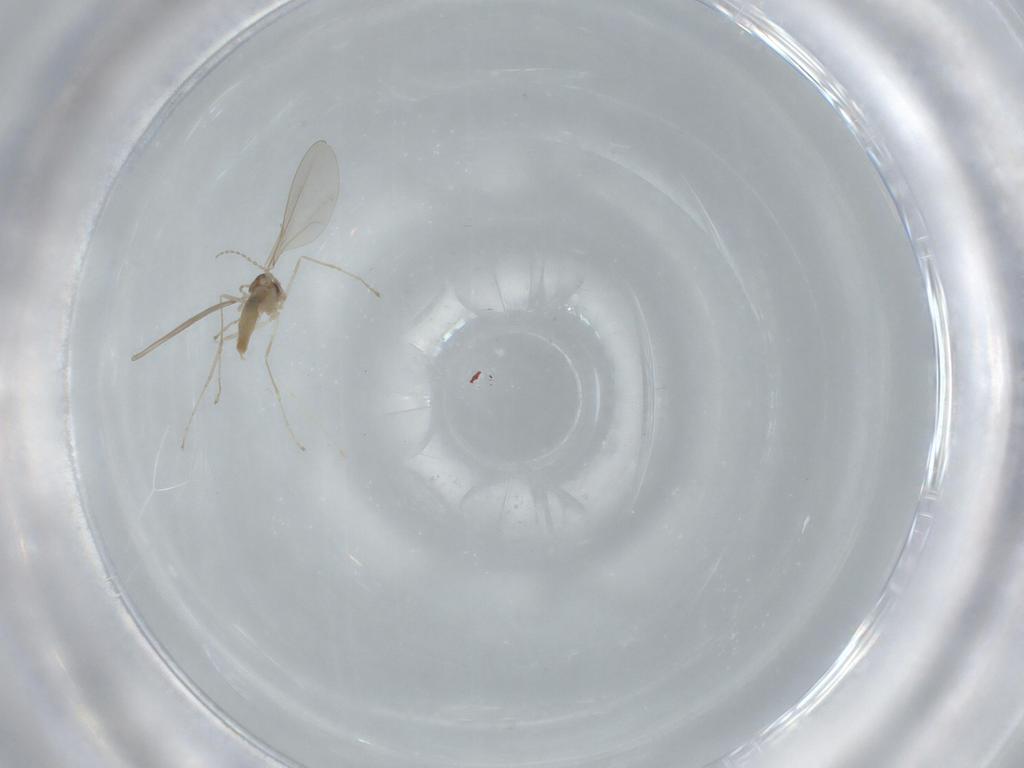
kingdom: Animalia
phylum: Arthropoda
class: Insecta
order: Diptera
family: Cecidomyiidae
